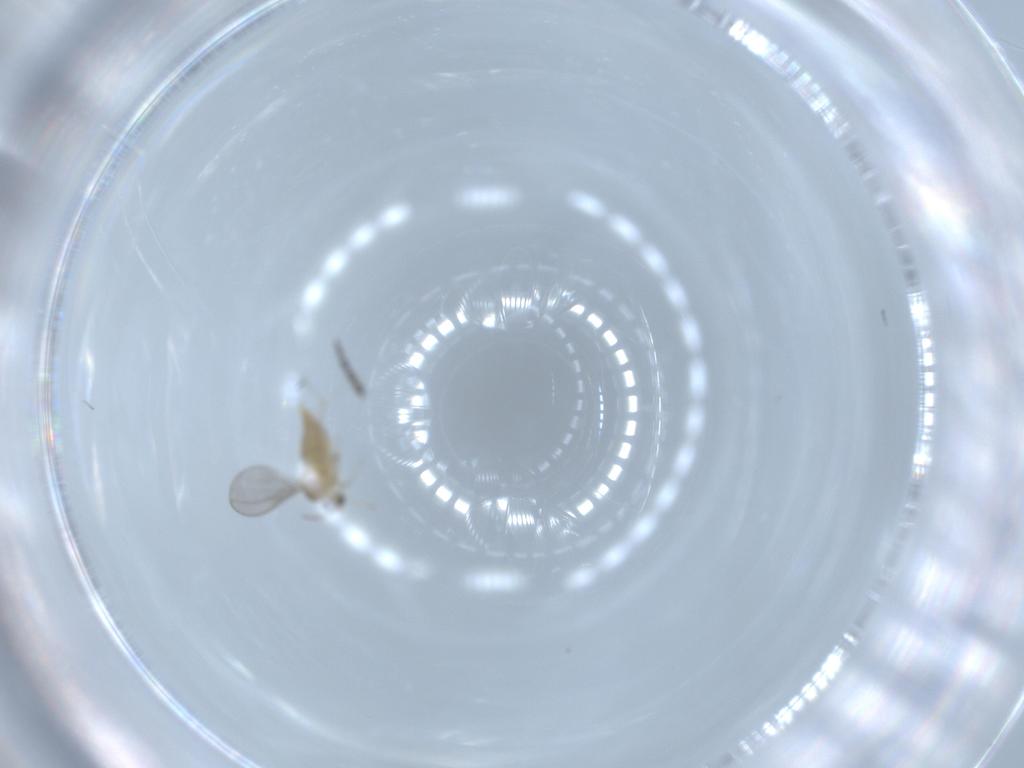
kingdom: Animalia
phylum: Arthropoda
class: Insecta
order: Diptera
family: Cecidomyiidae
